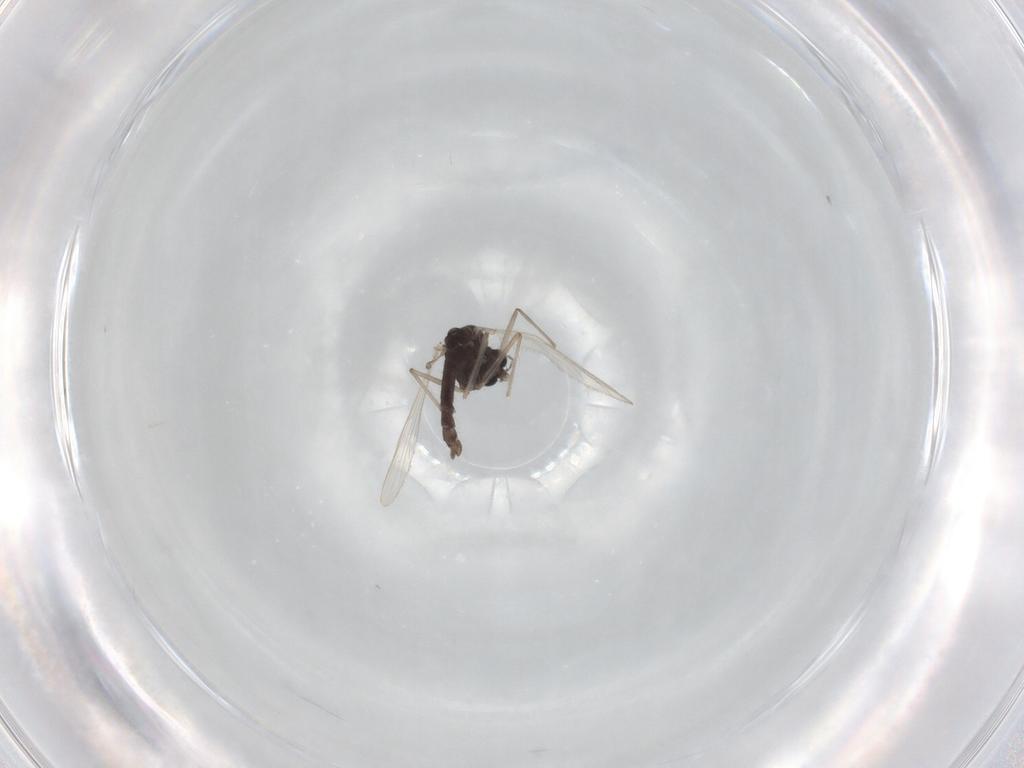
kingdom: Animalia
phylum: Arthropoda
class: Insecta
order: Diptera
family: Chironomidae
